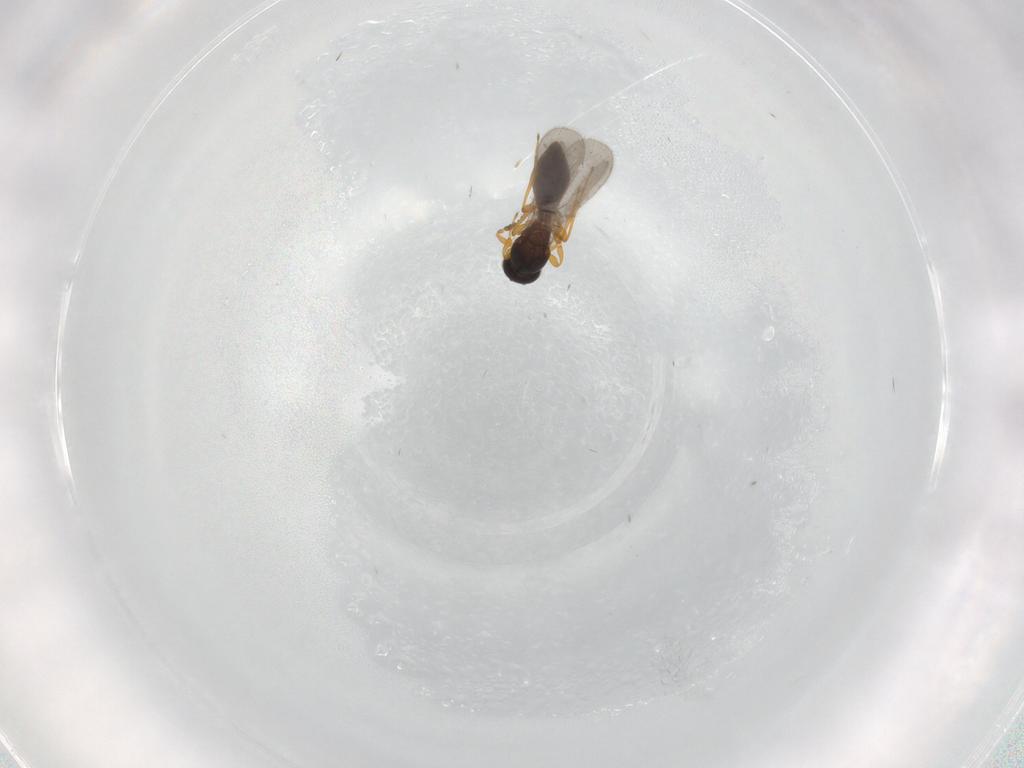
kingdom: Animalia
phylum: Arthropoda
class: Insecta
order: Hymenoptera
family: Platygastridae
